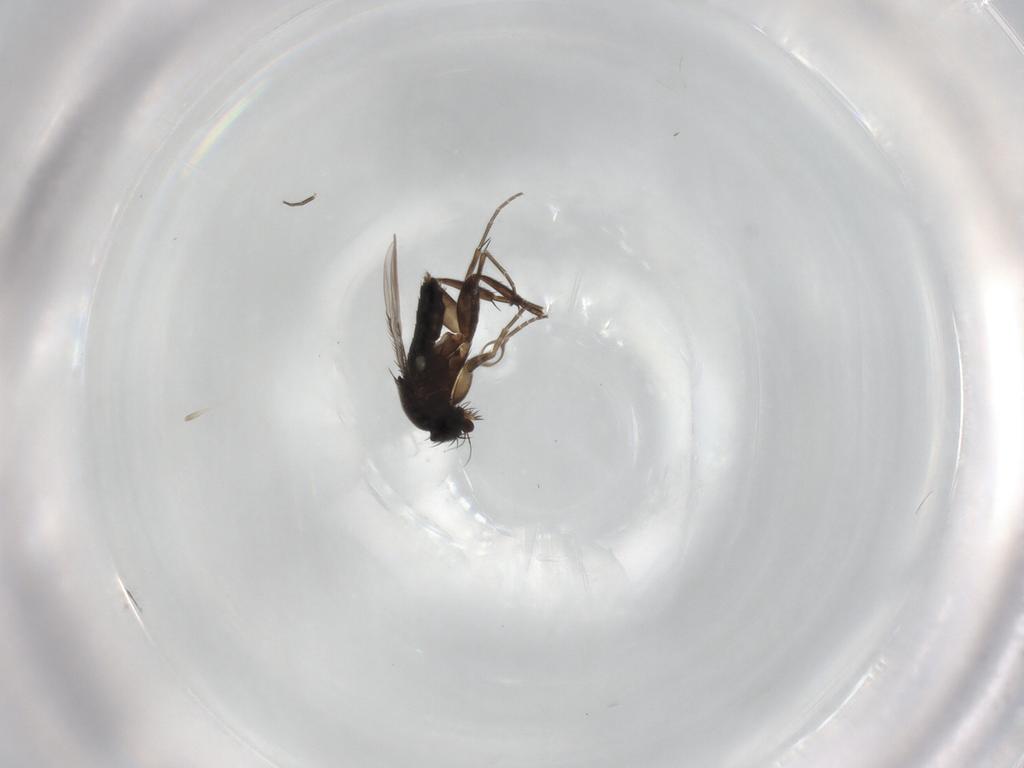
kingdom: Animalia
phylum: Arthropoda
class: Insecta
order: Diptera
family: Phoridae
